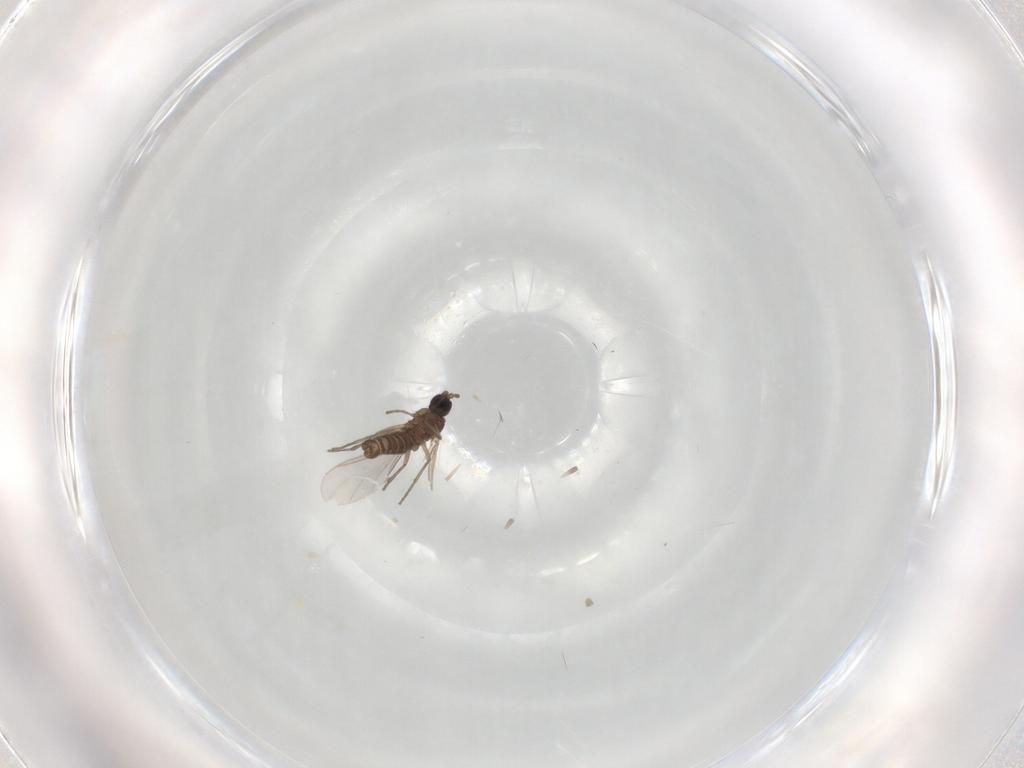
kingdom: Animalia
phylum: Arthropoda
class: Insecta
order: Diptera
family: Sciaridae
